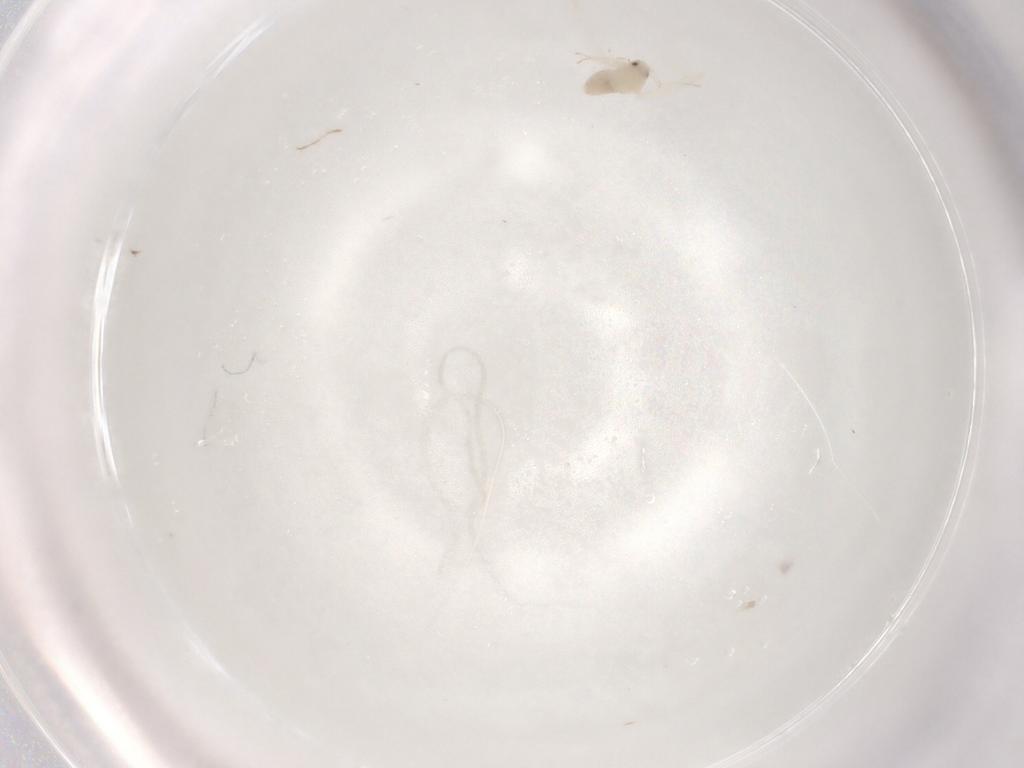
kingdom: Animalia
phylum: Arthropoda
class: Insecta
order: Hemiptera
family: Aleyrodidae
